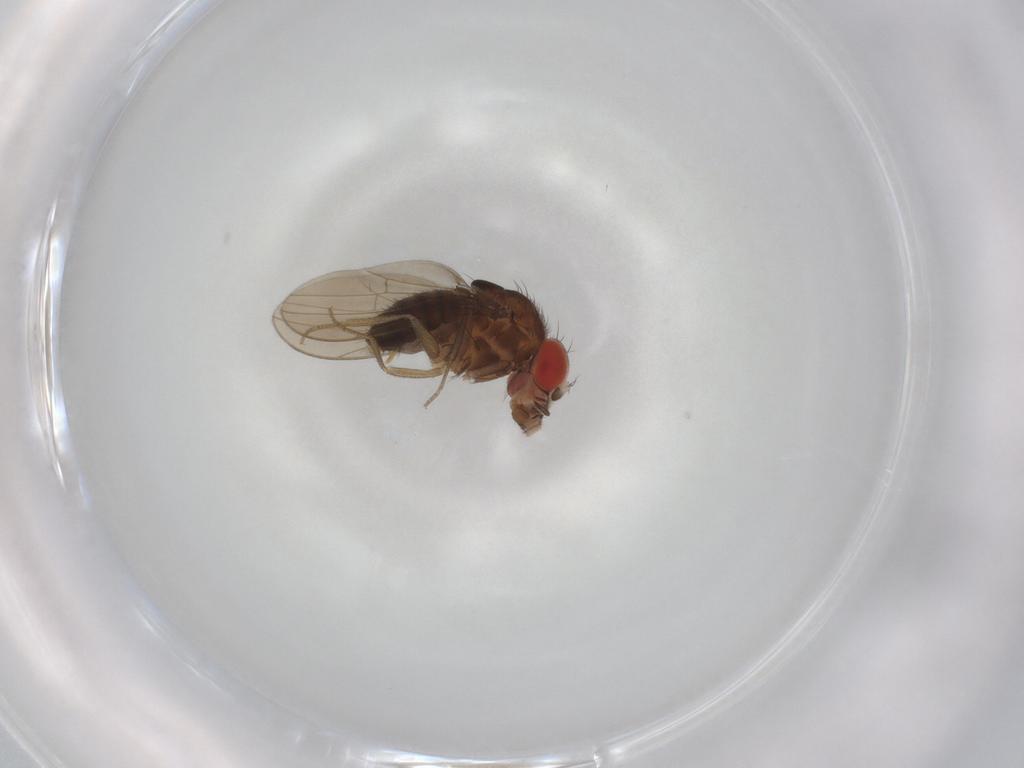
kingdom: Animalia
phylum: Arthropoda
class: Insecta
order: Diptera
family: Drosophilidae
